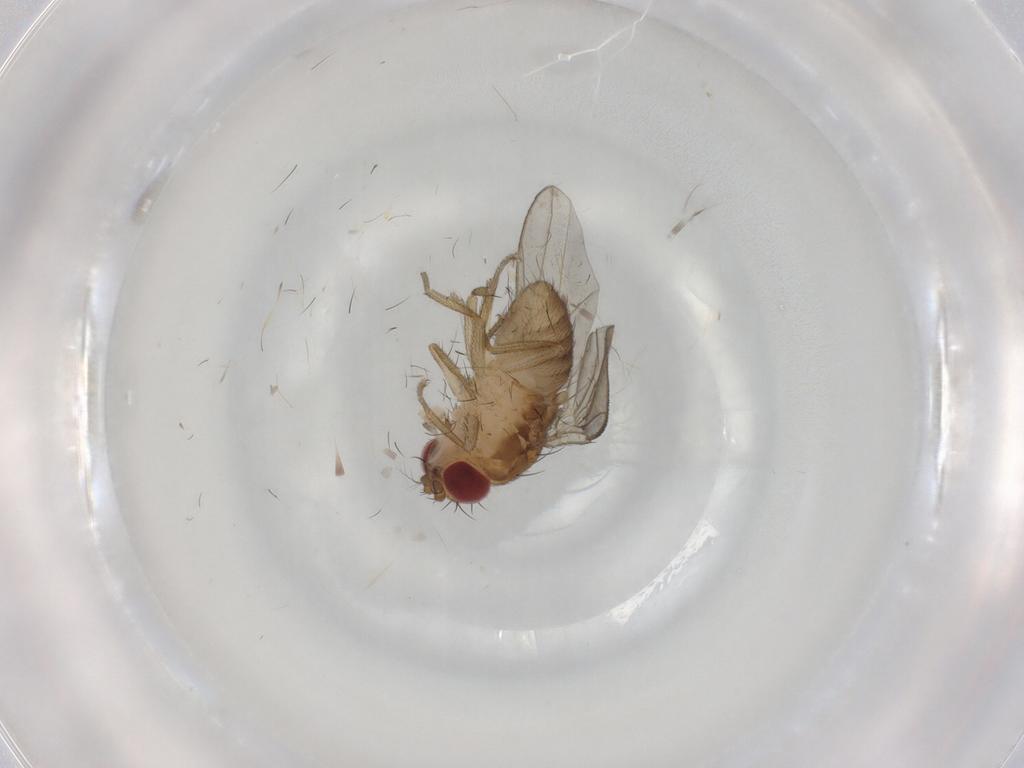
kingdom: Animalia
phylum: Arthropoda
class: Insecta
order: Diptera
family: Drosophilidae
